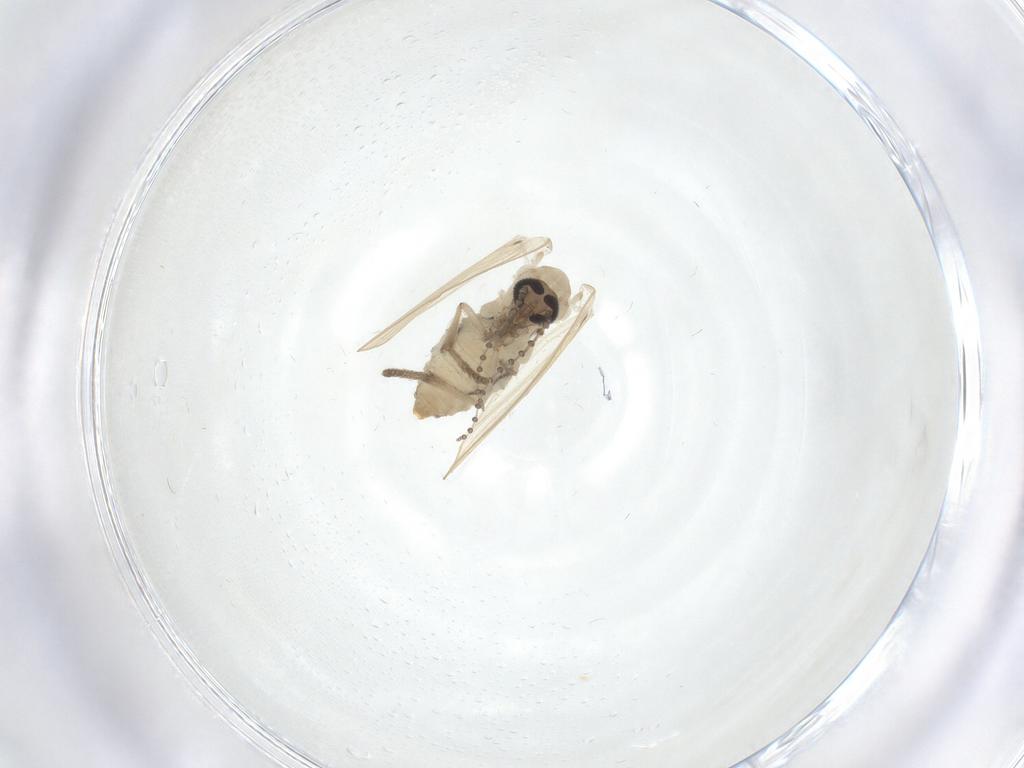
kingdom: Animalia
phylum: Arthropoda
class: Insecta
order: Diptera
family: Psychodidae
